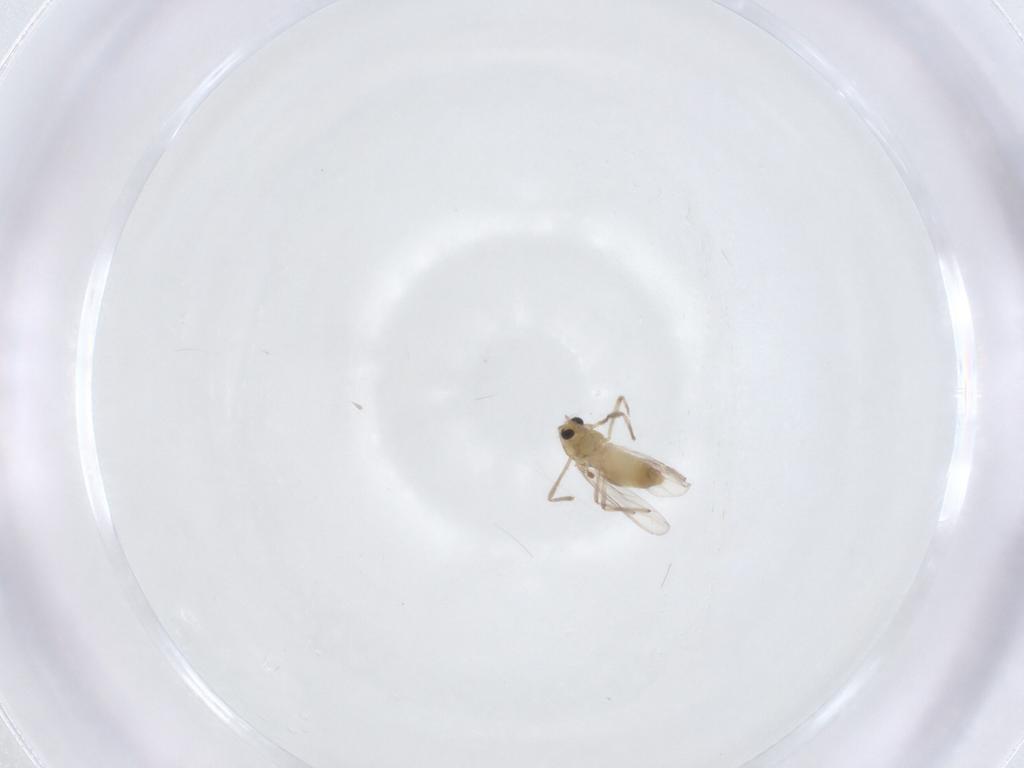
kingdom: Animalia
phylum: Arthropoda
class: Insecta
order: Diptera
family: Chironomidae
